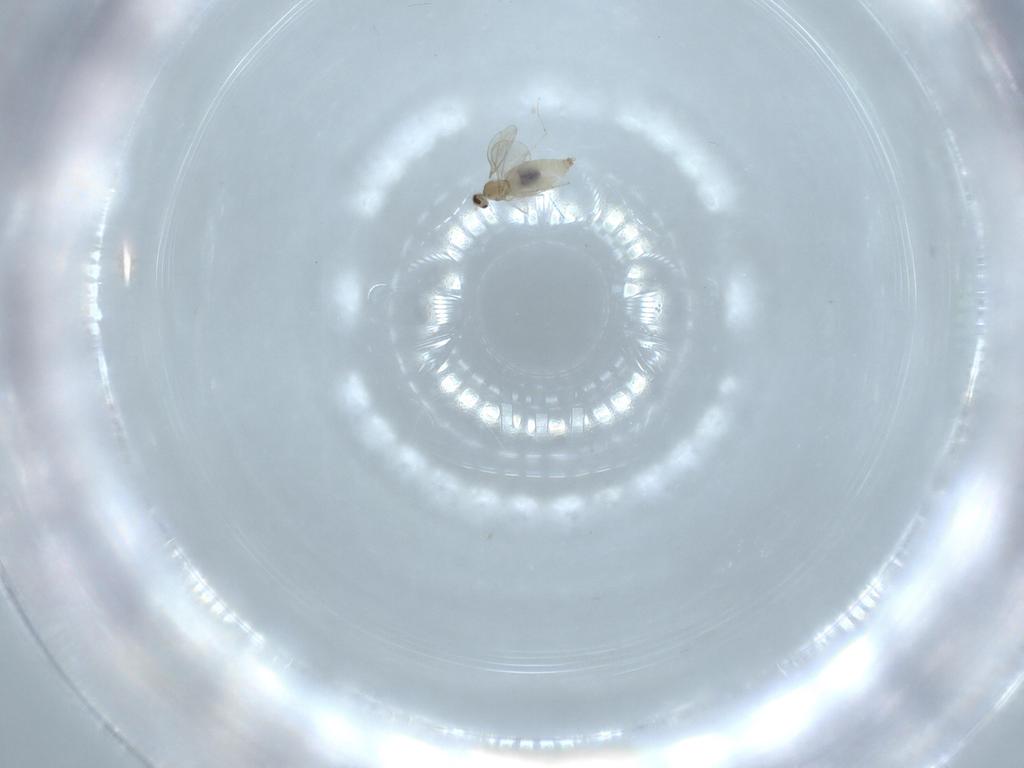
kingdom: Animalia
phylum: Arthropoda
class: Insecta
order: Diptera
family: Cecidomyiidae
